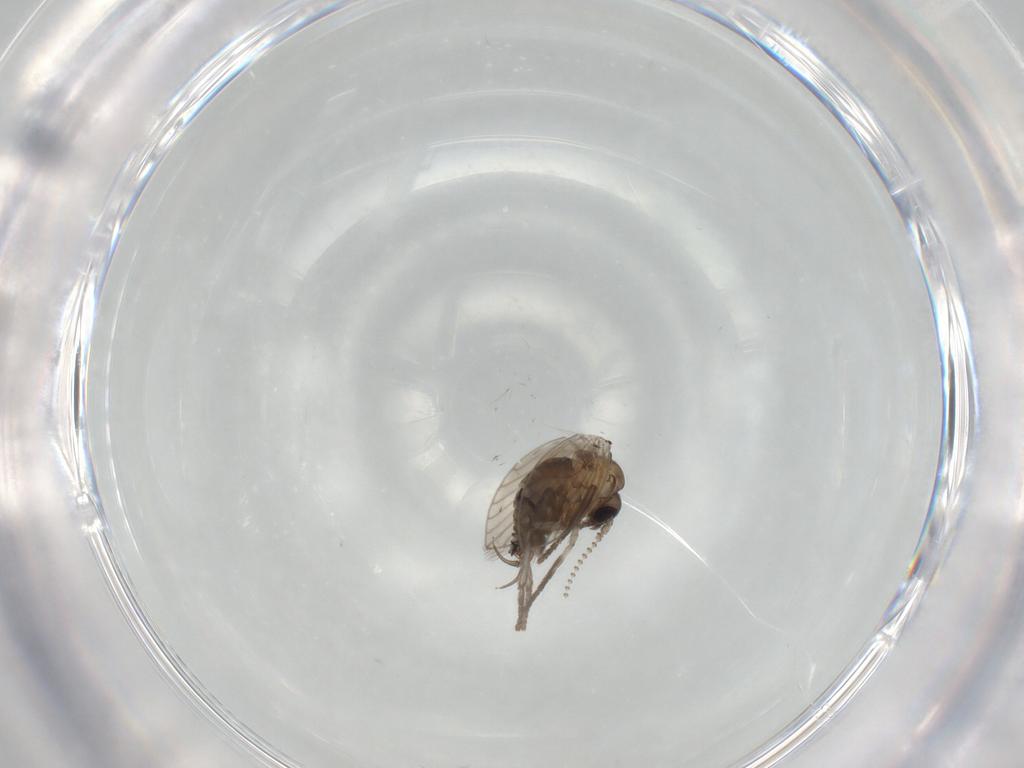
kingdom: Animalia
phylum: Arthropoda
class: Insecta
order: Diptera
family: Psychodidae
